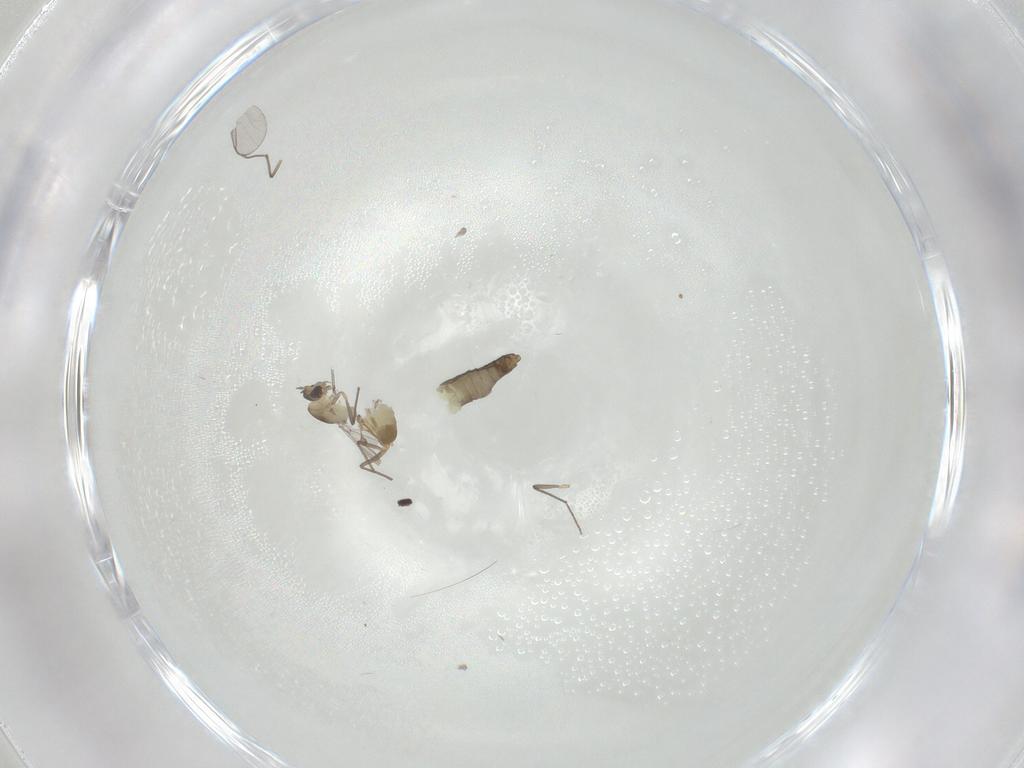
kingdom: Animalia
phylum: Arthropoda
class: Insecta
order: Diptera
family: Chironomidae
